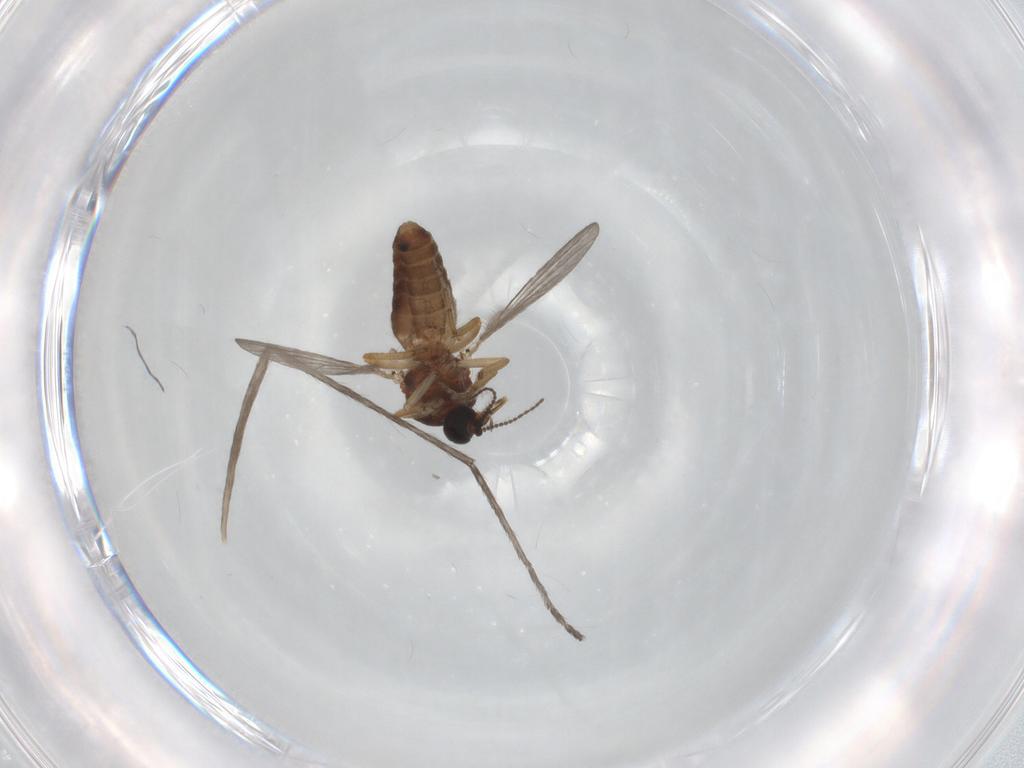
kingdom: Animalia
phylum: Arthropoda
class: Insecta
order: Diptera
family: Ceratopogonidae
